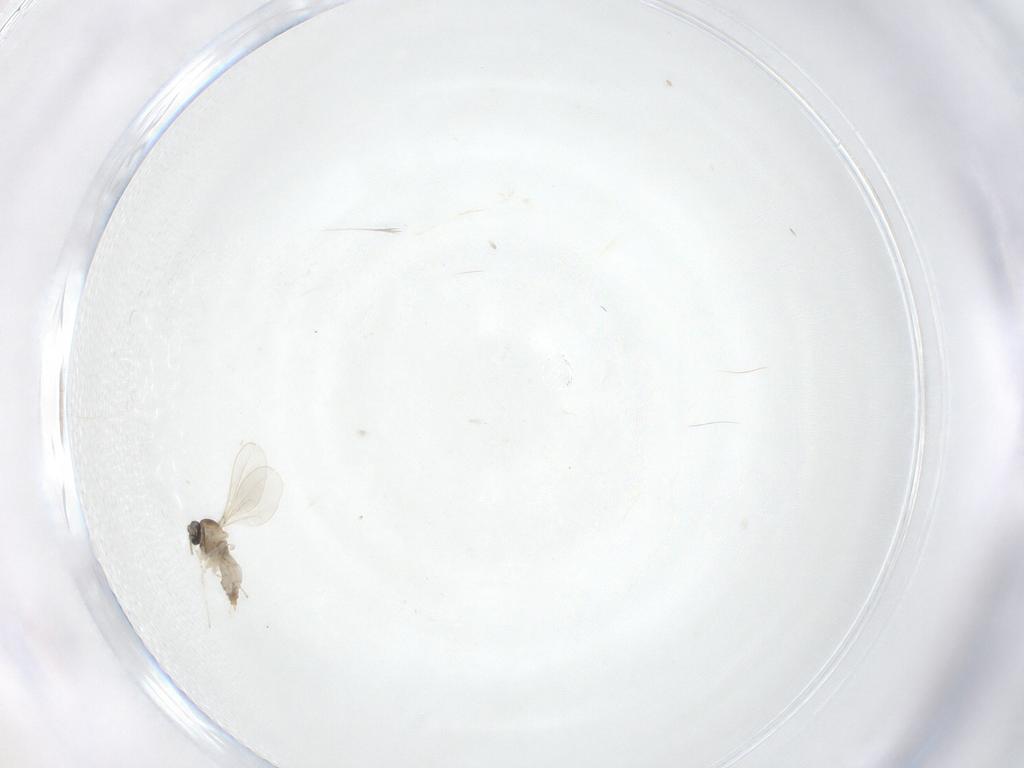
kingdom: Animalia
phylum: Arthropoda
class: Insecta
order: Diptera
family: Cecidomyiidae
